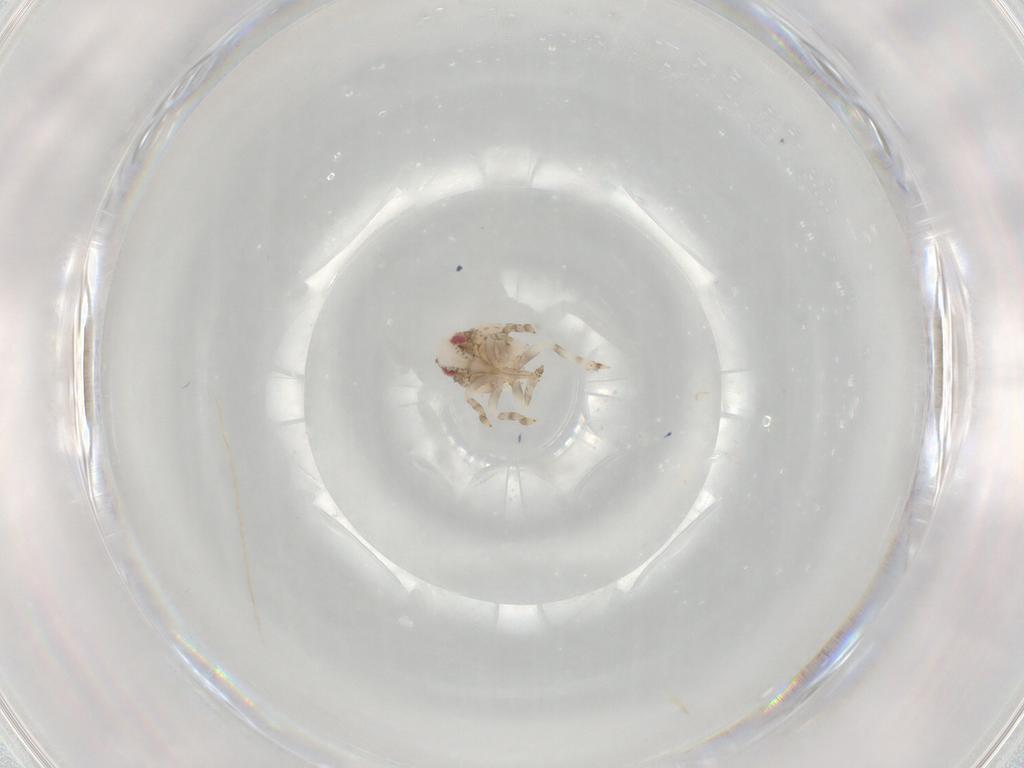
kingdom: Animalia
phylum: Arthropoda
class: Insecta
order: Hemiptera
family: Acanaloniidae
